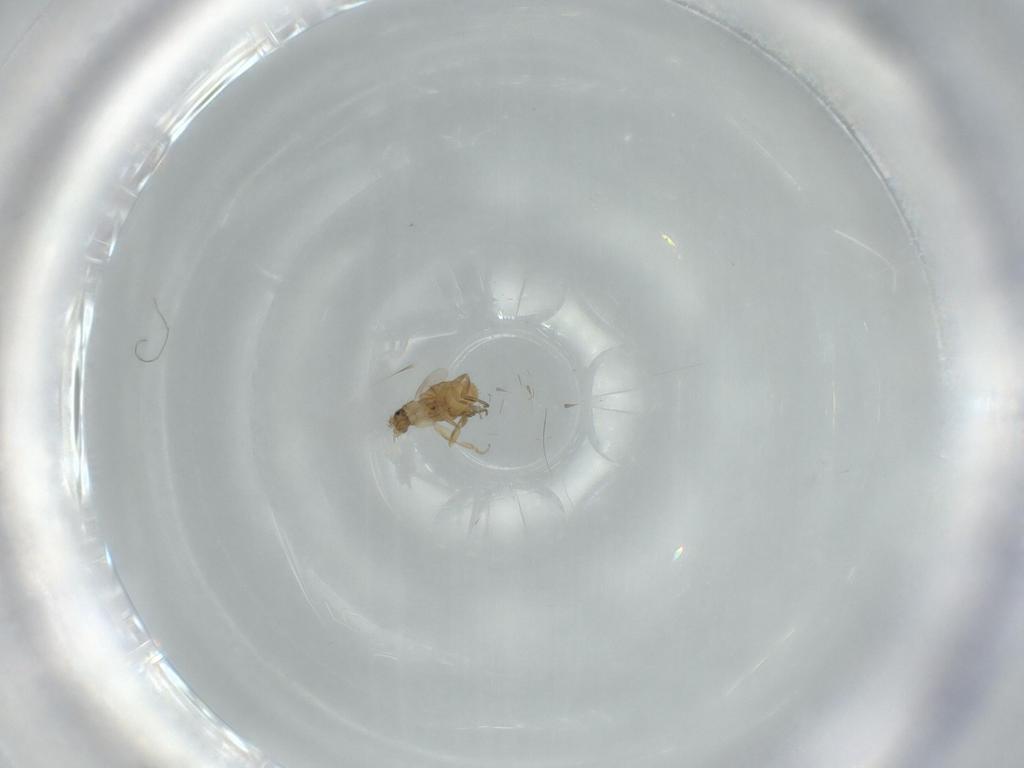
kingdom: Animalia
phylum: Arthropoda
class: Insecta
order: Diptera
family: Phoridae
